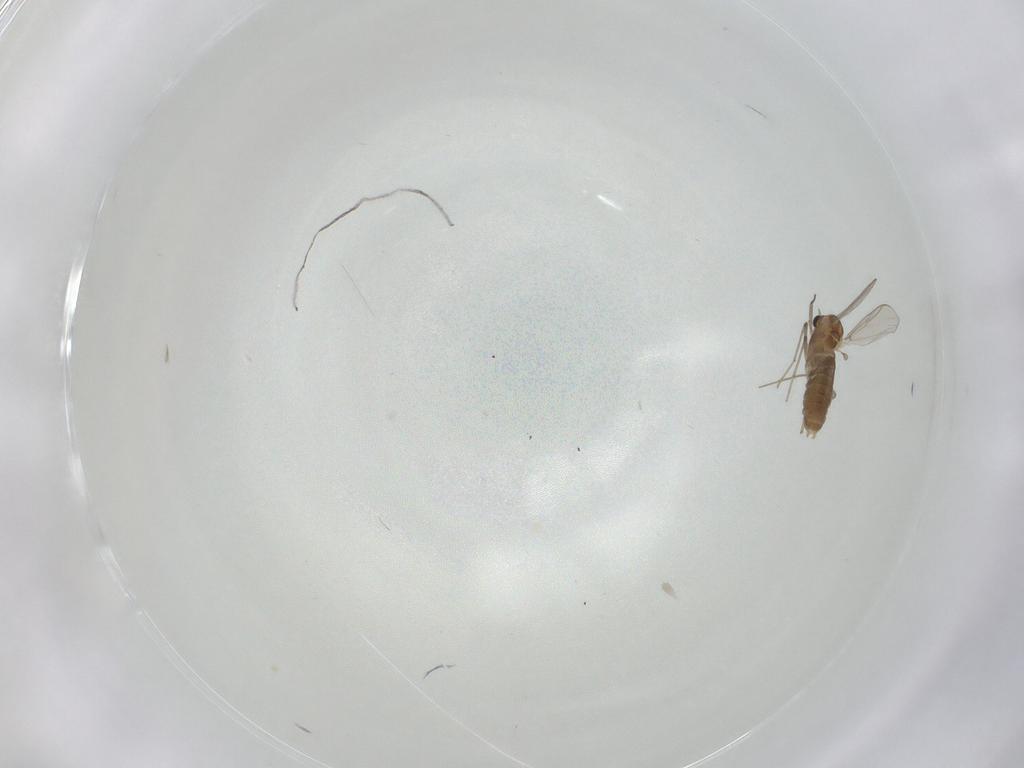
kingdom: Animalia
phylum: Arthropoda
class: Insecta
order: Diptera
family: Chironomidae
